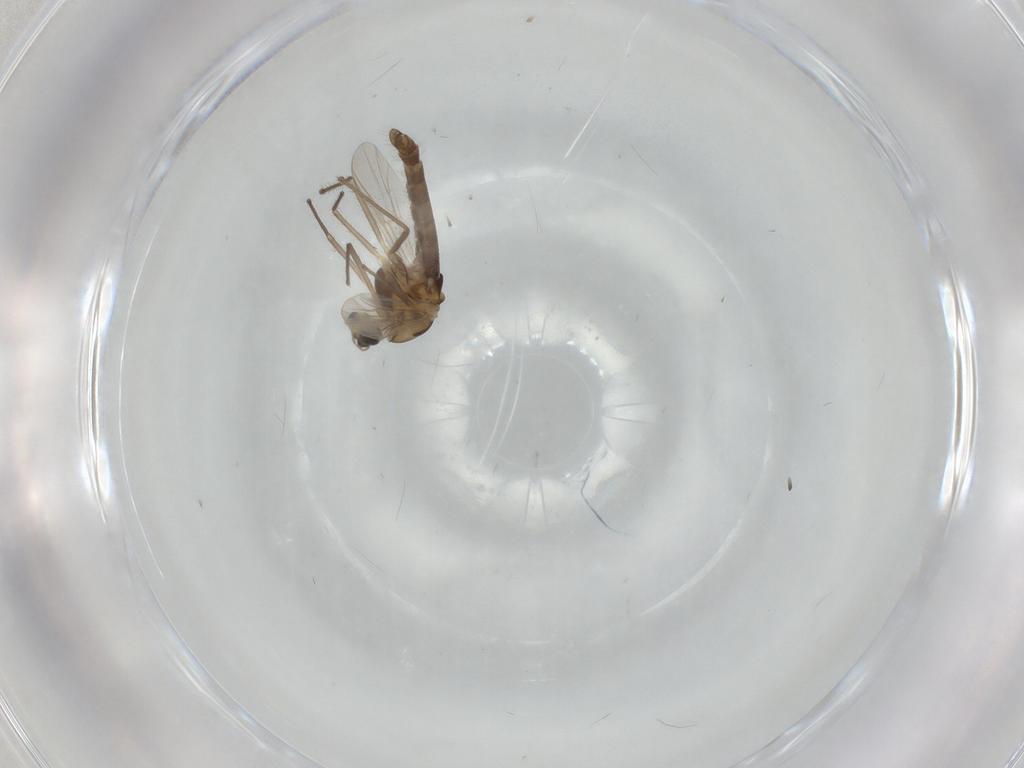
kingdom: Animalia
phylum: Arthropoda
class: Insecta
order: Diptera
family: Chironomidae
